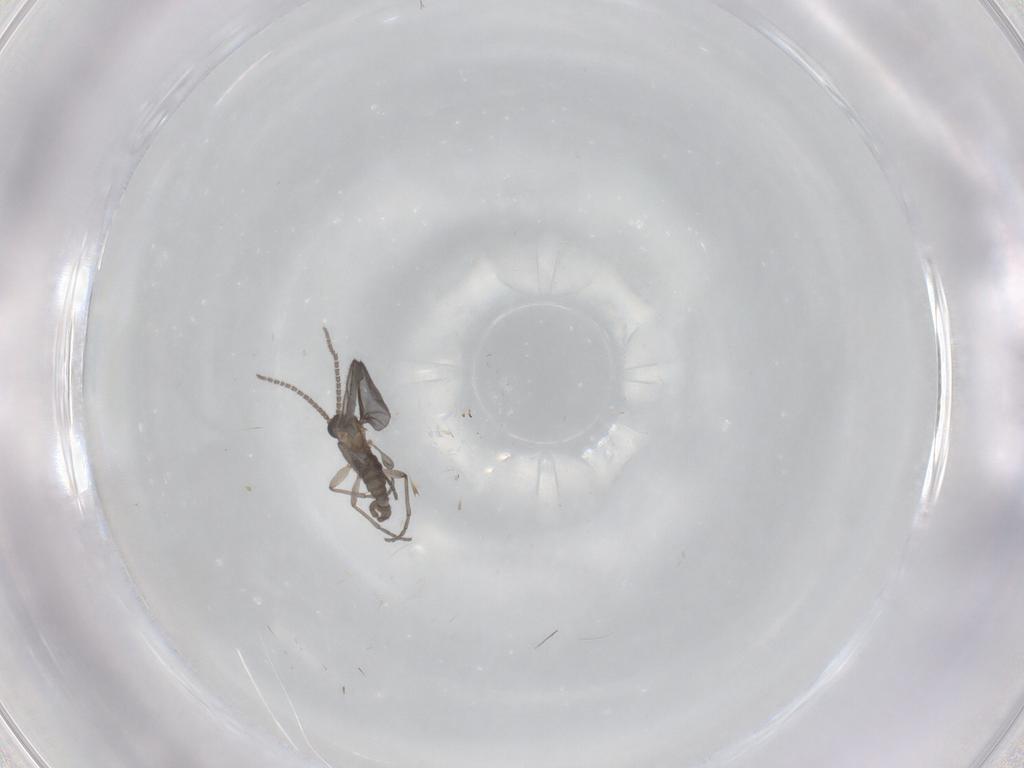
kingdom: Animalia
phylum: Arthropoda
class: Insecta
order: Diptera
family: Sciaridae
